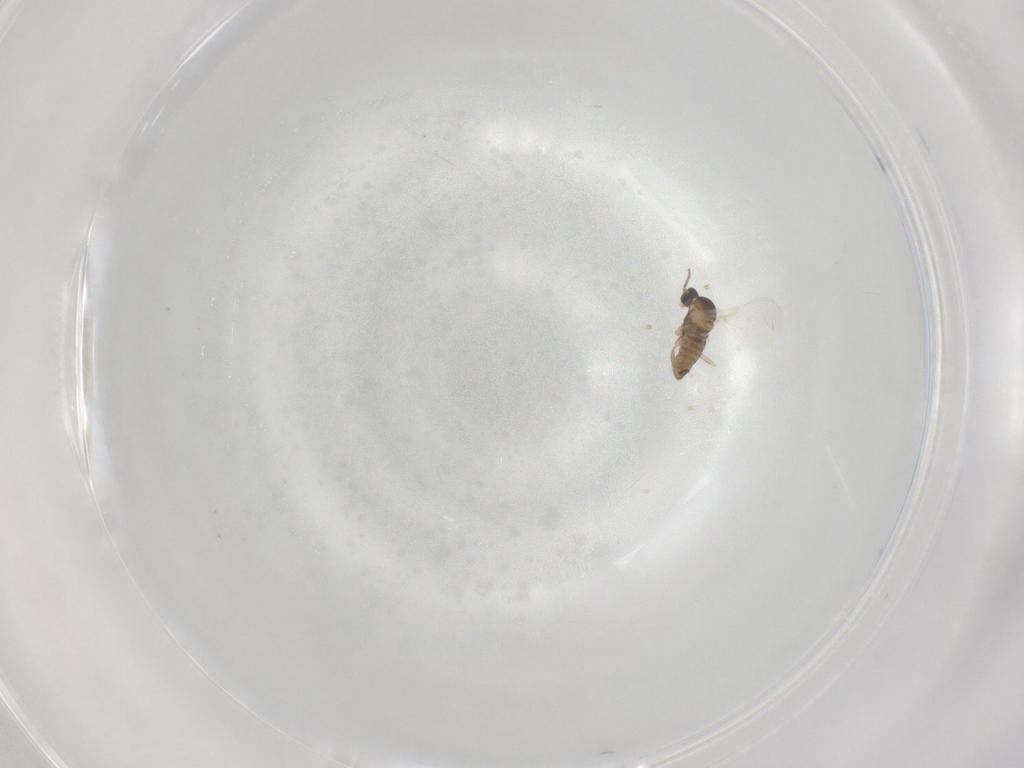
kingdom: Animalia
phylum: Arthropoda
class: Insecta
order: Diptera
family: Cecidomyiidae
